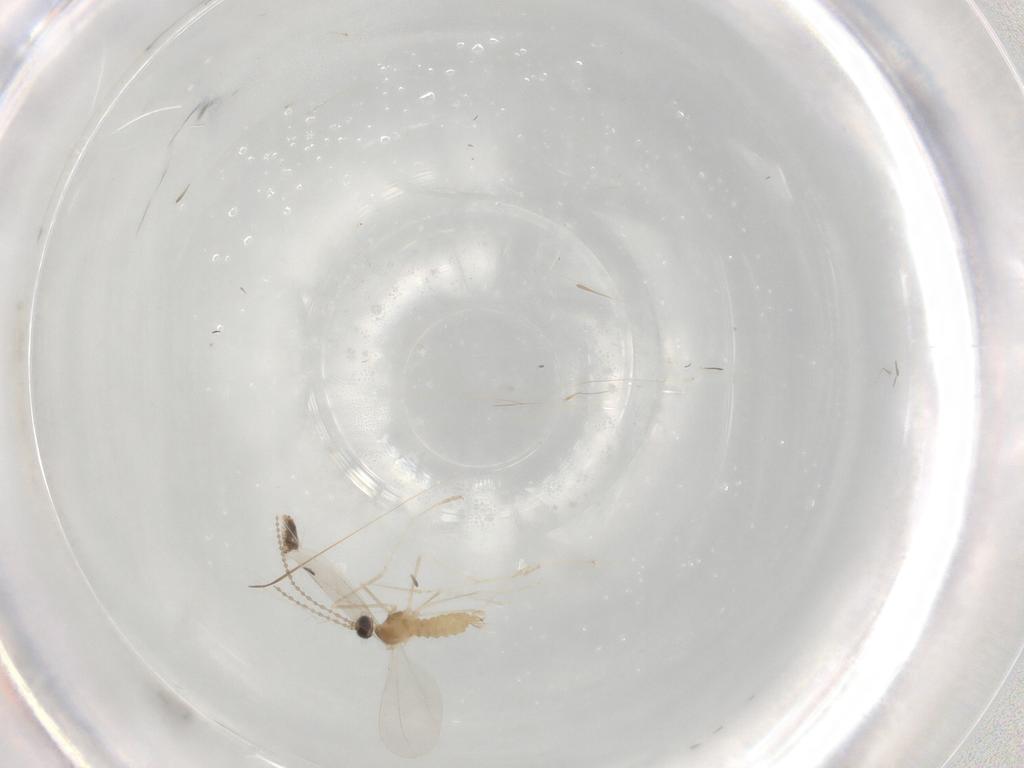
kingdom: Animalia
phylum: Arthropoda
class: Insecta
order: Diptera
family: Cecidomyiidae
